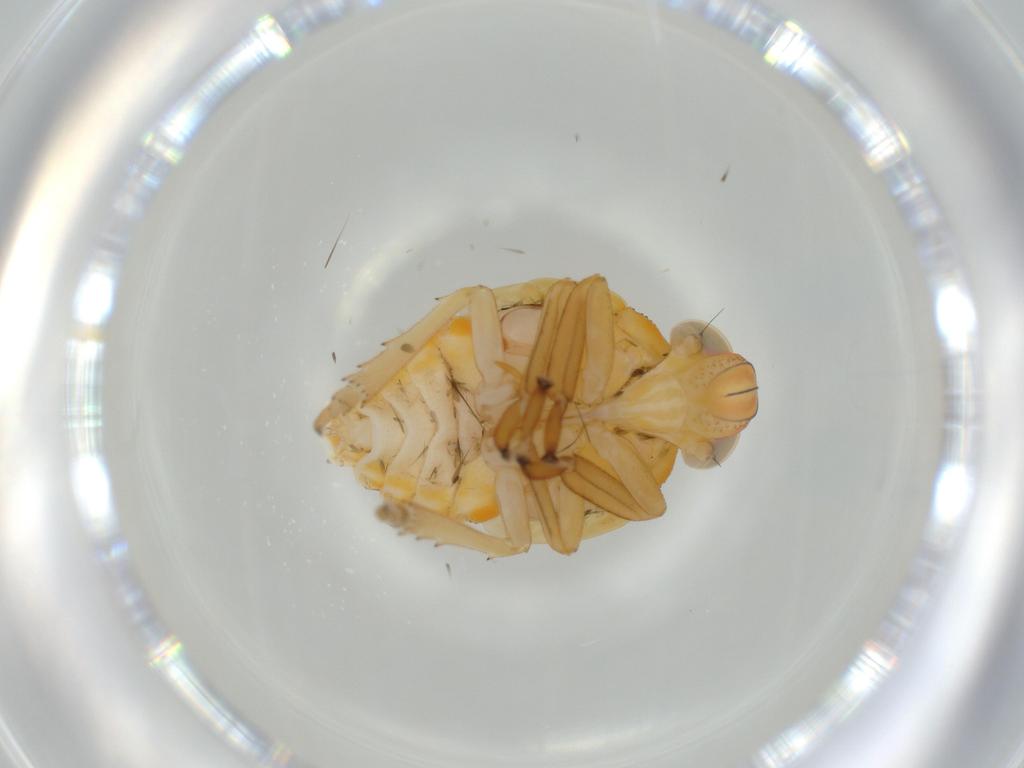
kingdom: Animalia
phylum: Arthropoda
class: Insecta
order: Hemiptera
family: Issidae
